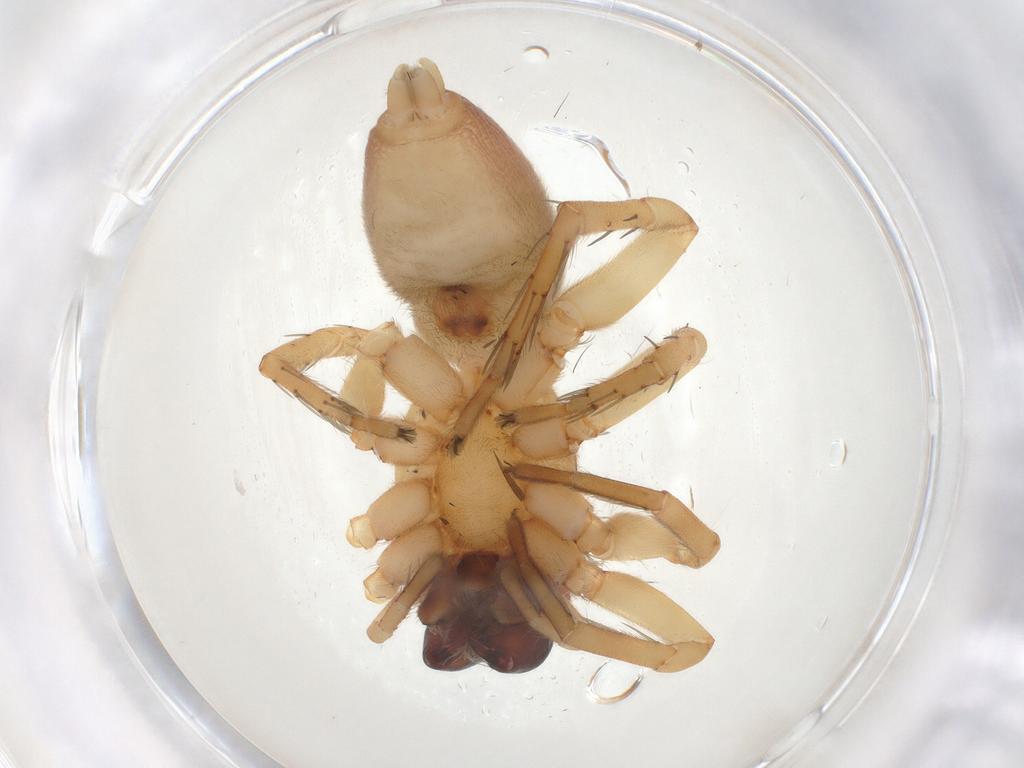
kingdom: Animalia
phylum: Arthropoda
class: Arachnida
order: Araneae
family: Clubionidae
